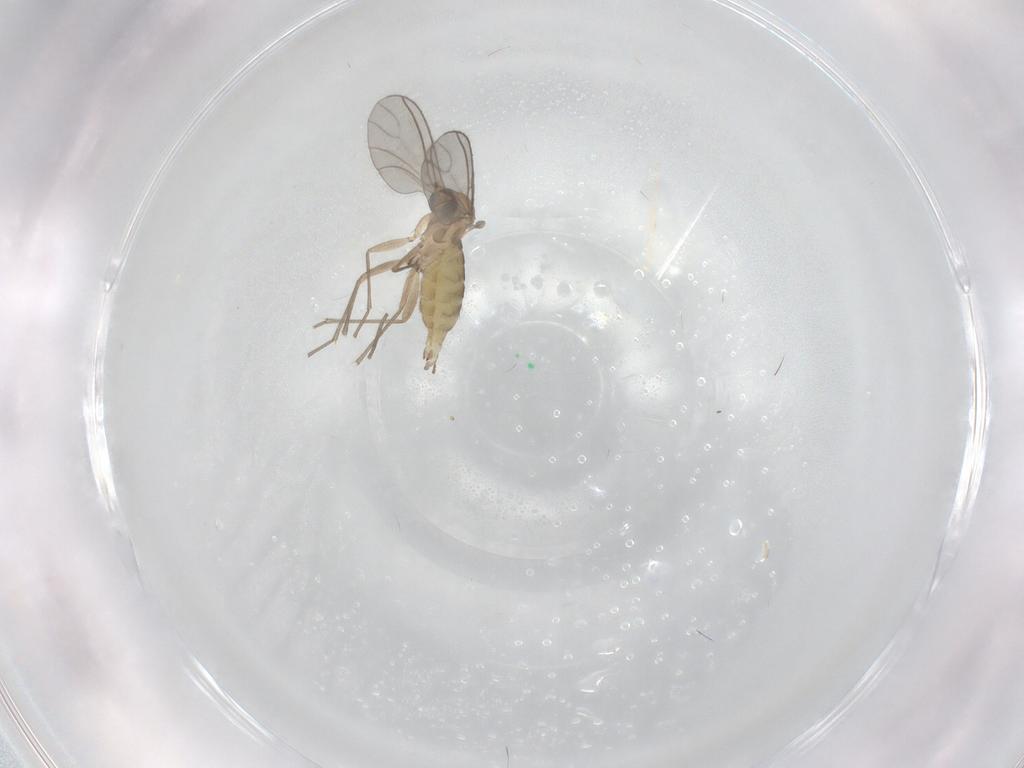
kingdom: Animalia
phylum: Arthropoda
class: Insecta
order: Diptera
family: Sciaridae
